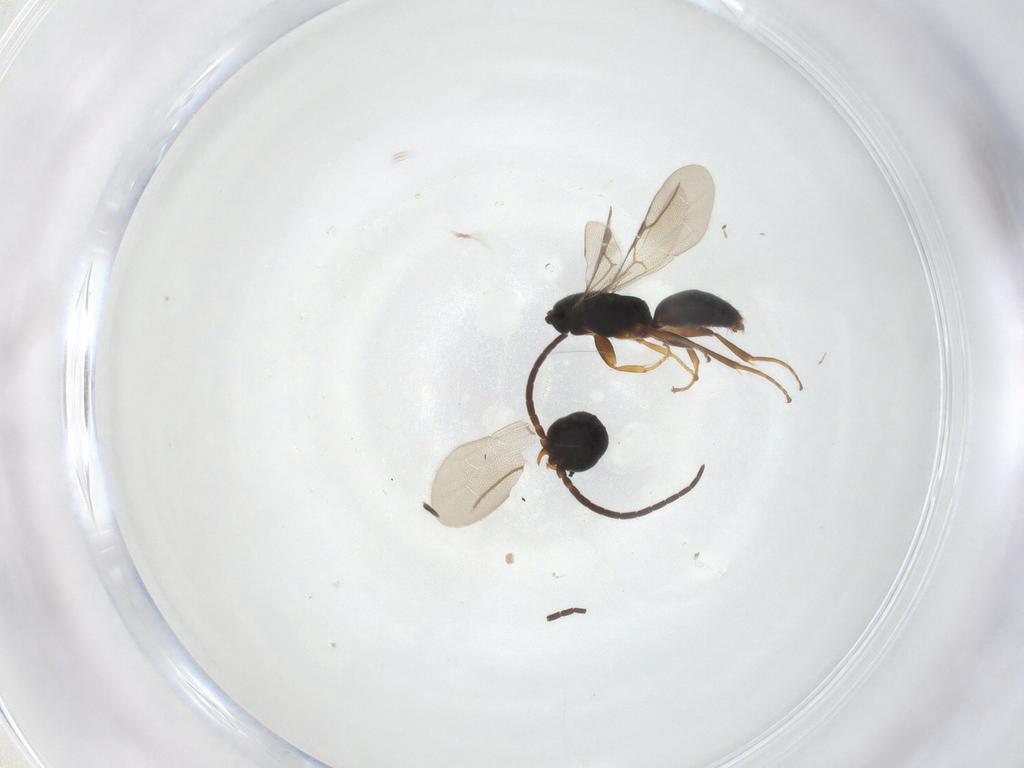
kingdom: Animalia
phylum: Arthropoda
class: Insecta
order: Hymenoptera
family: Bethylidae
